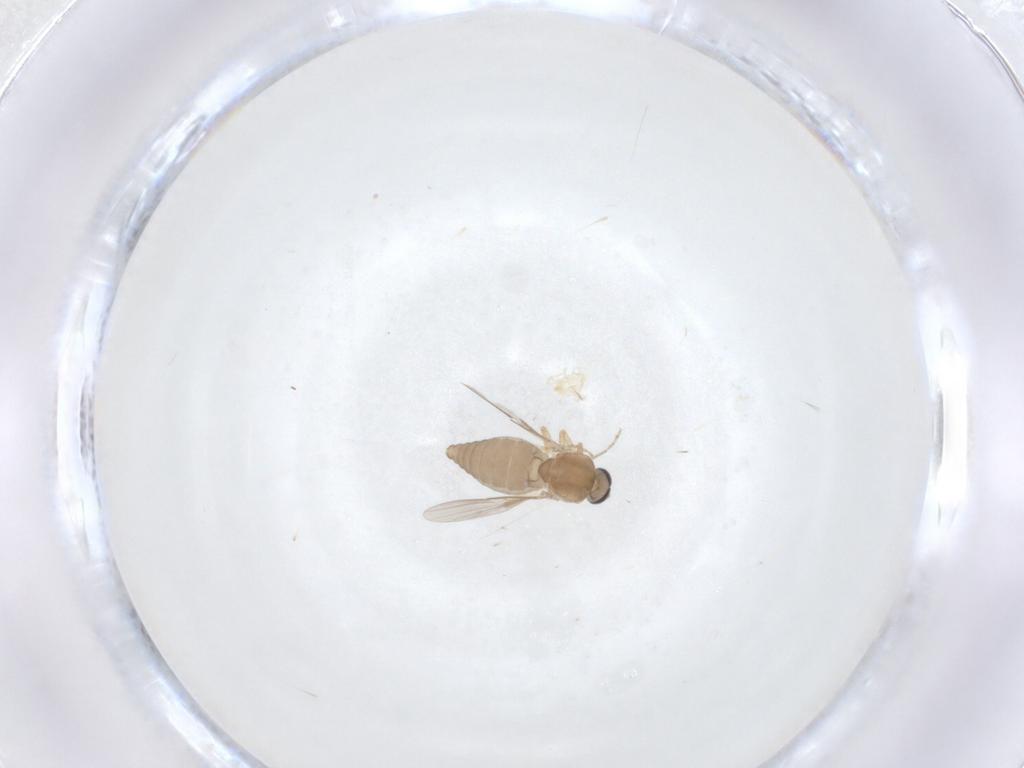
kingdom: Animalia
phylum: Arthropoda
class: Insecta
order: Diptera
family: Ceratopogonidae
